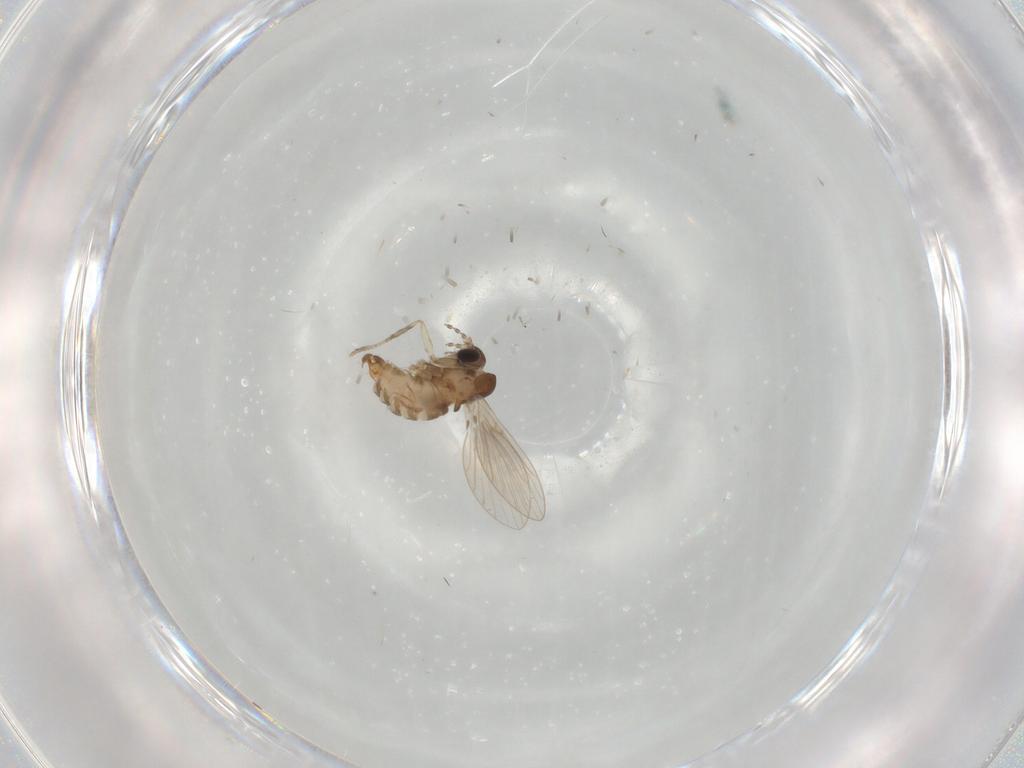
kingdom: Animalia
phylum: Arthropoda
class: Insecta
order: Diptera
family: Psychodidae
